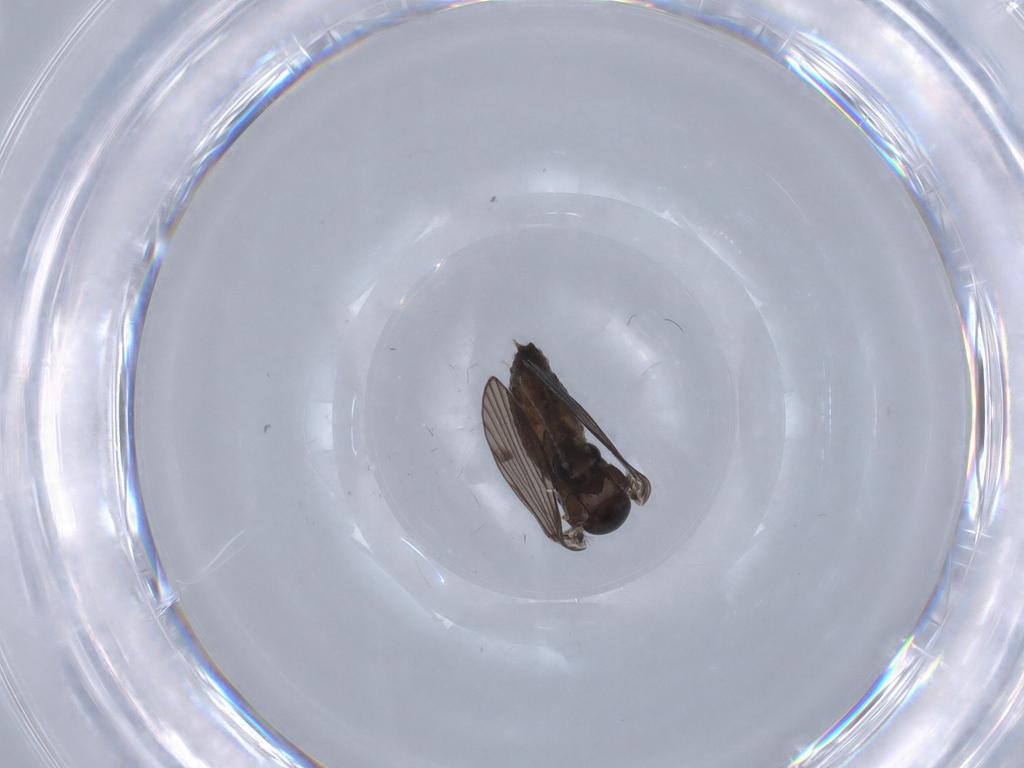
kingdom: Animalia
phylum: Arthropoda
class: Insecta
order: Diptera
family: Psychodidae
